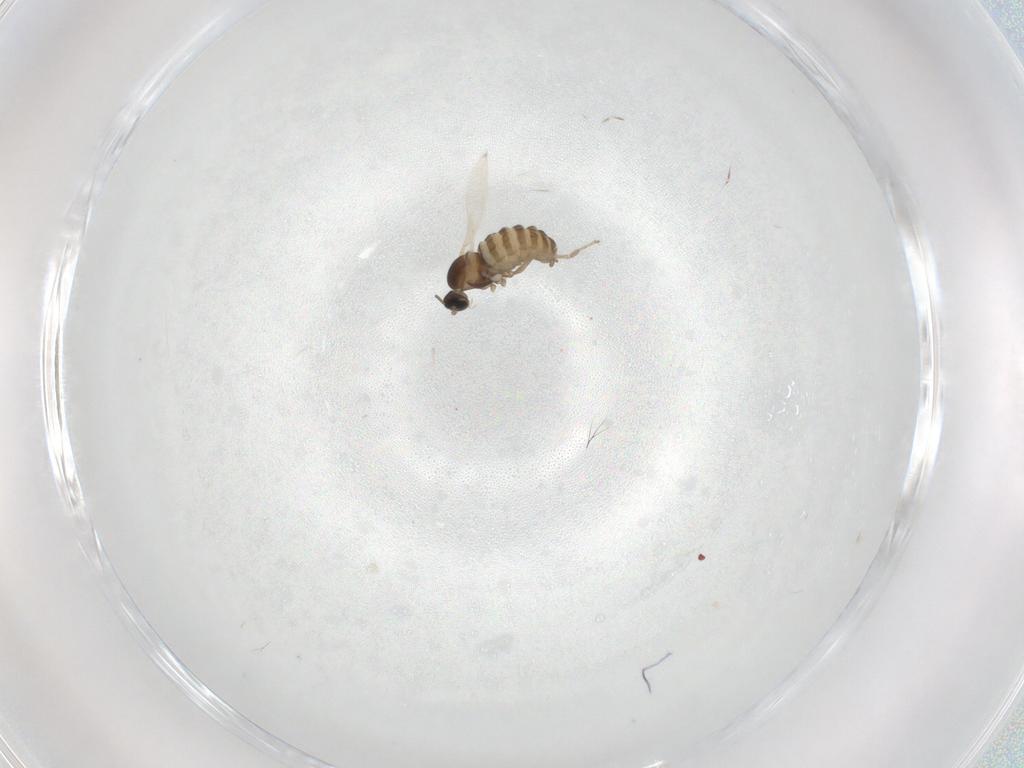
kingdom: Animalia
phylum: Arthropoda
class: Insecta
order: Diptera
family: Cecidomyiidae
